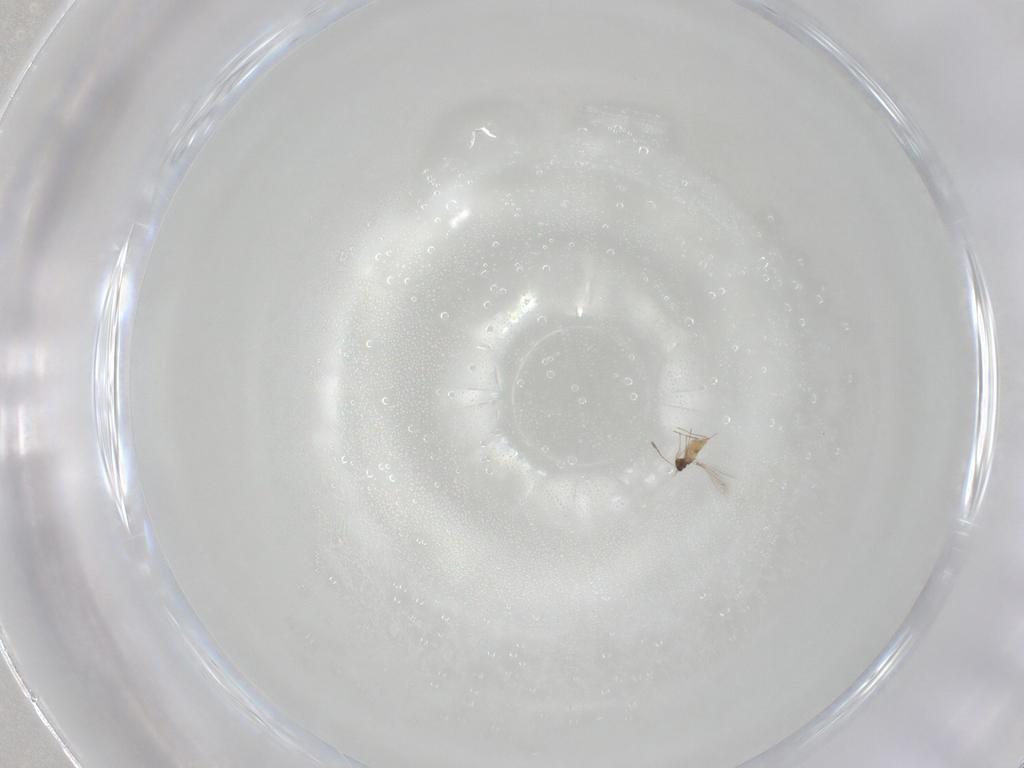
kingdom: Animalia
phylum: Arthropoda
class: Insecta
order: Hymenoptera
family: Mymaridae
